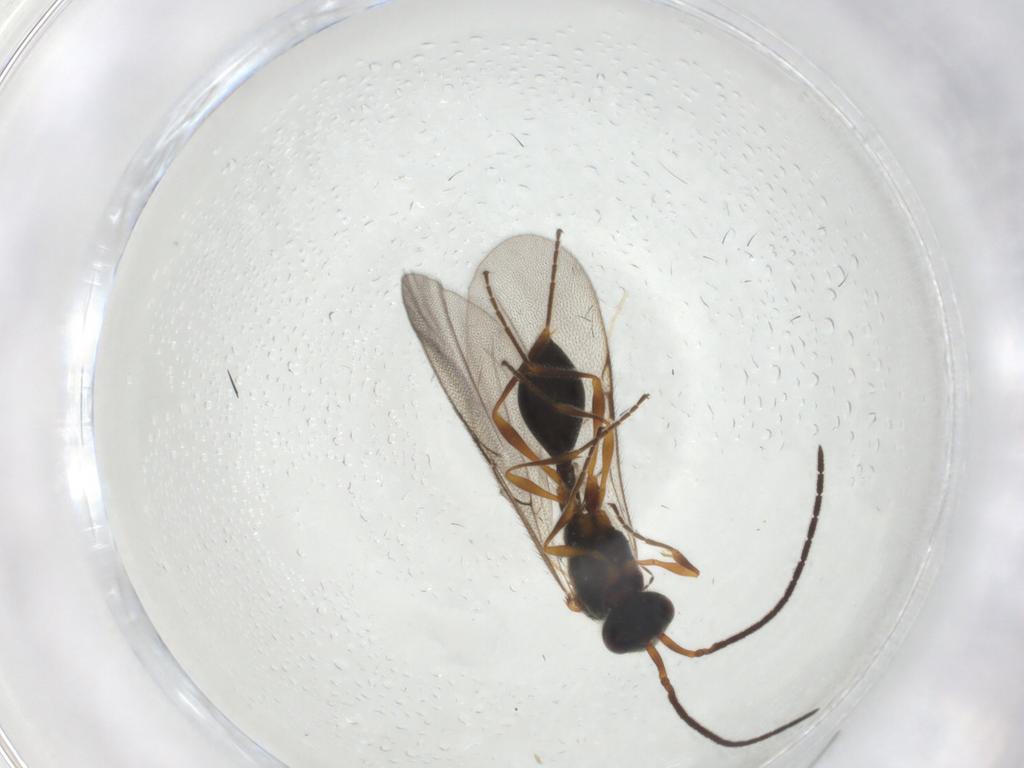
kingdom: Animalia
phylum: Arthropoda
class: Insecta
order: Hymenoptera
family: Diapriidae
